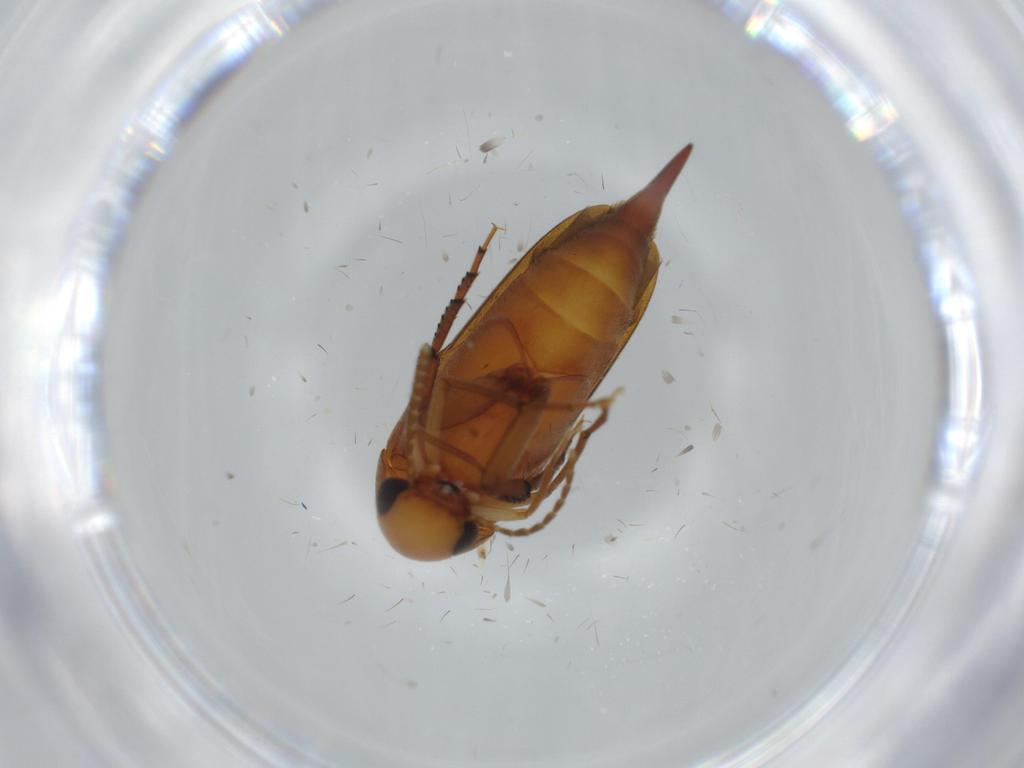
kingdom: Animalia
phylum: Arthropoda
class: Insecta
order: Coleoptera
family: Mordellidae
